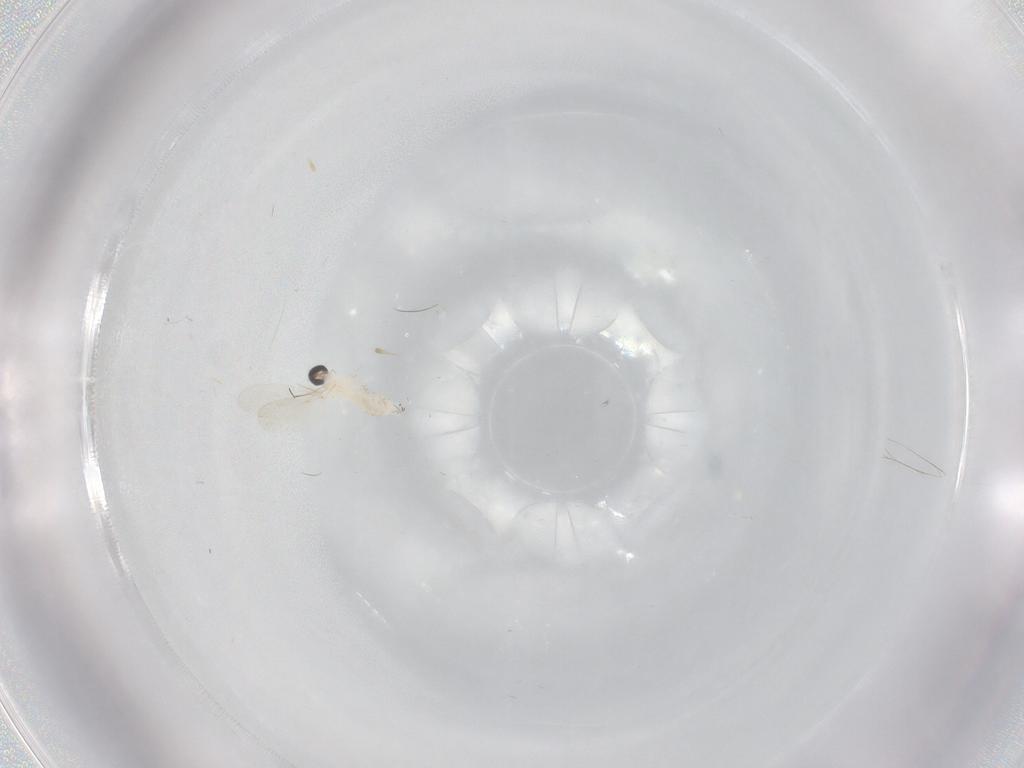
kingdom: Animalia
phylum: Arthropoda
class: Insecta
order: Diptera
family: Cecidomyiidae
